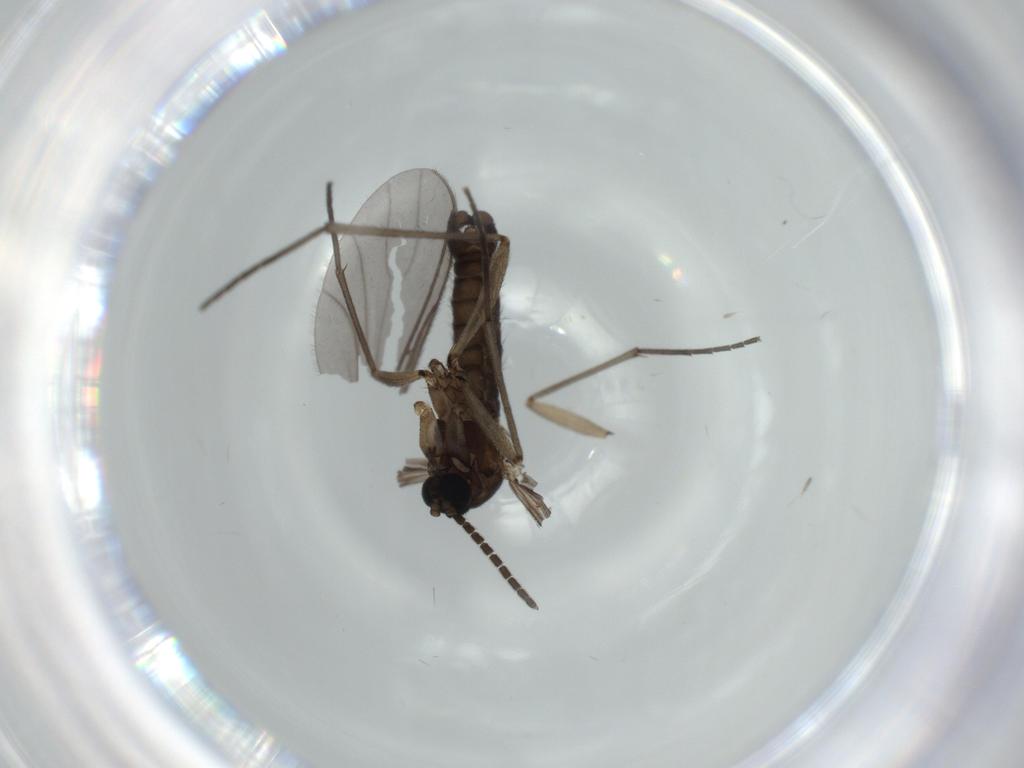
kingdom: Animalia
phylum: Arthropoda
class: Insecta
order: Diptera
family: Sciaridae
